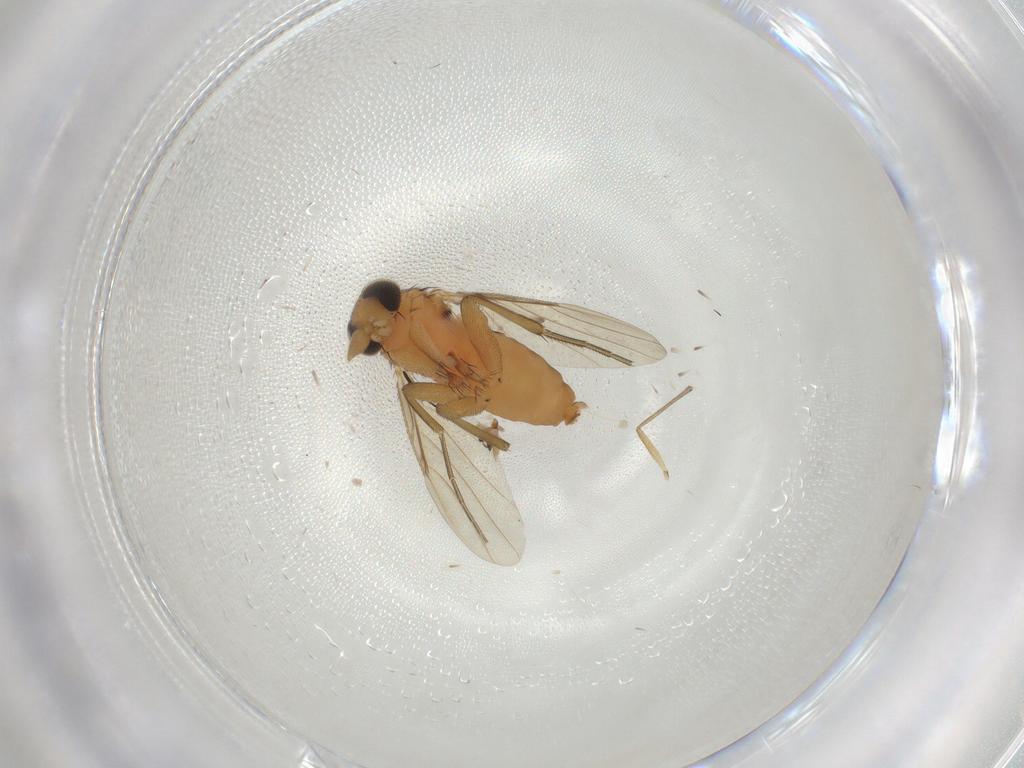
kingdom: Animalia
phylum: Arthropoda
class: Insecta
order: Diptera
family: Phoridae
